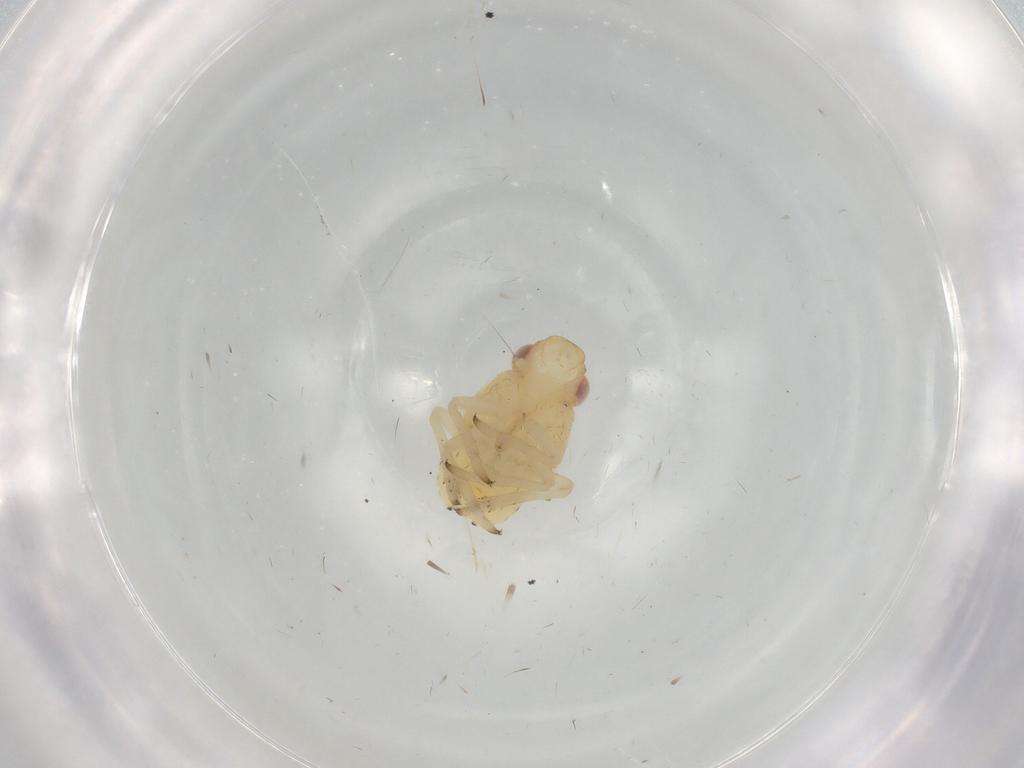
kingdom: Animalia
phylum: Arthropoda
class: Insecta
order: Hemiptera
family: Caliscelidae
